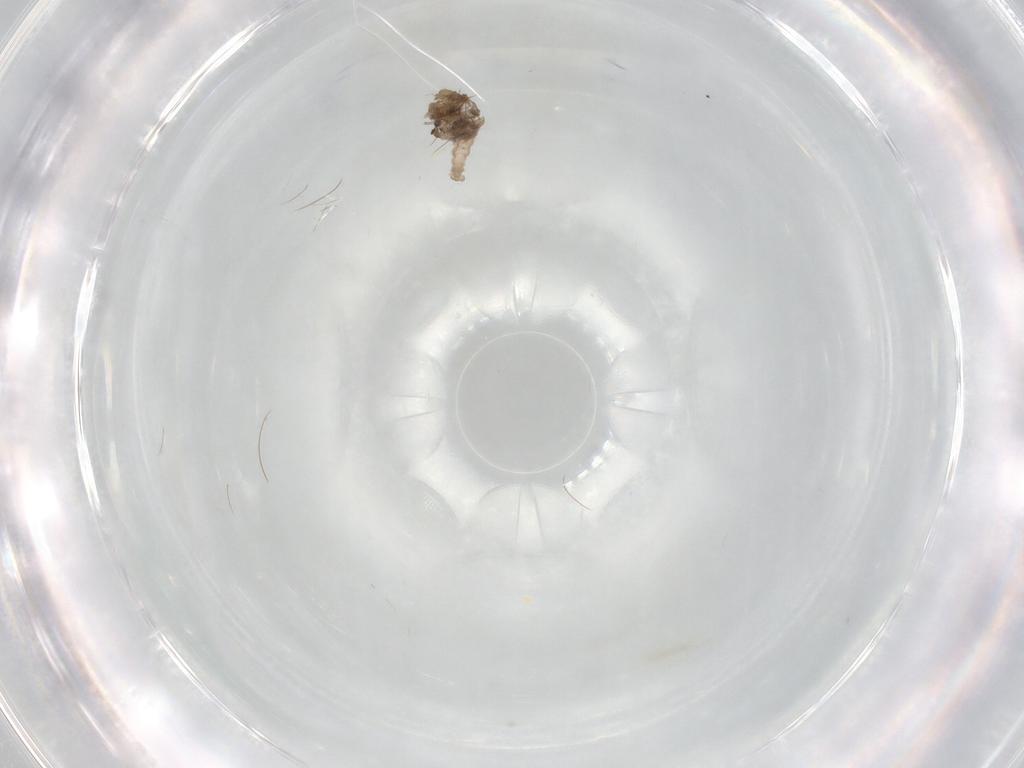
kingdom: Animalia
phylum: Arthropoda
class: Insecta
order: Diptera
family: Cecidomyiidae
